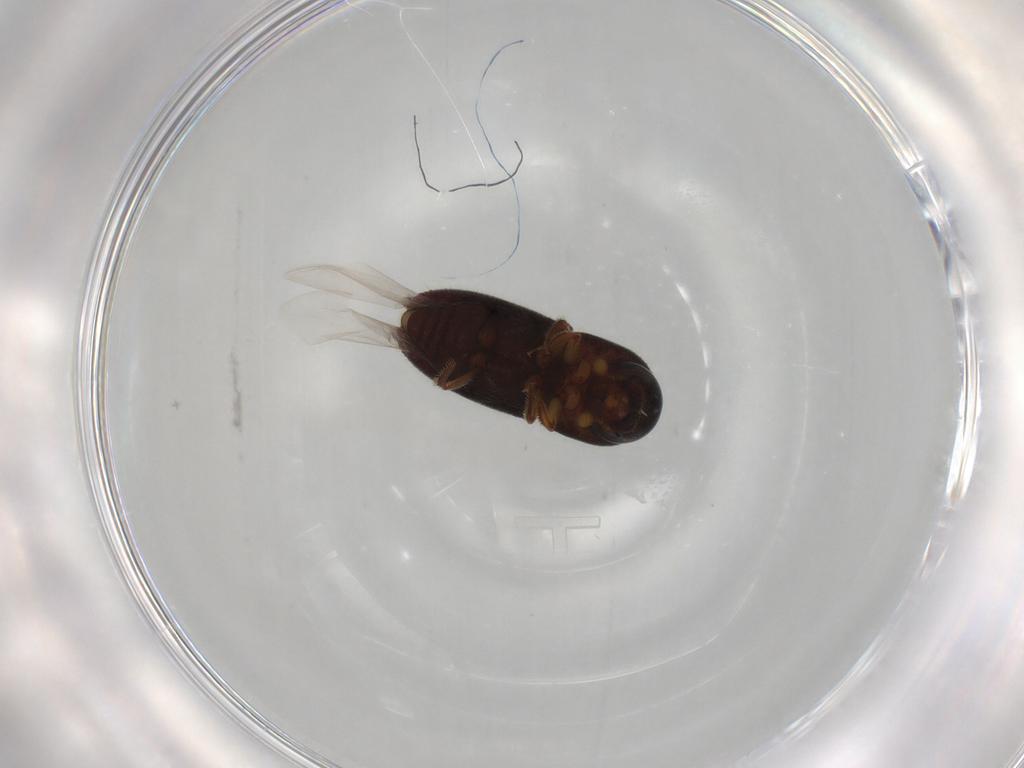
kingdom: Animalia
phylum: Arthropoda
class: Insecta
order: Coleoptera
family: Curculionidae
